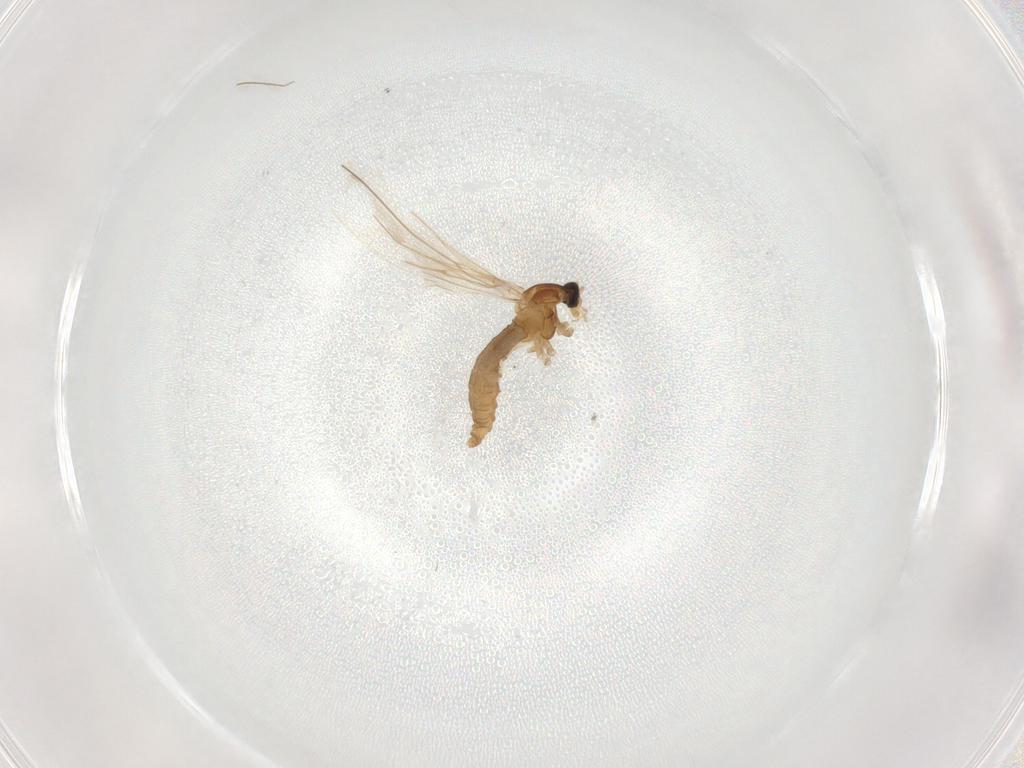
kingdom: Animalia
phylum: Arthropoda
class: Insecta
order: Diptera
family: Cecidomyiidae
